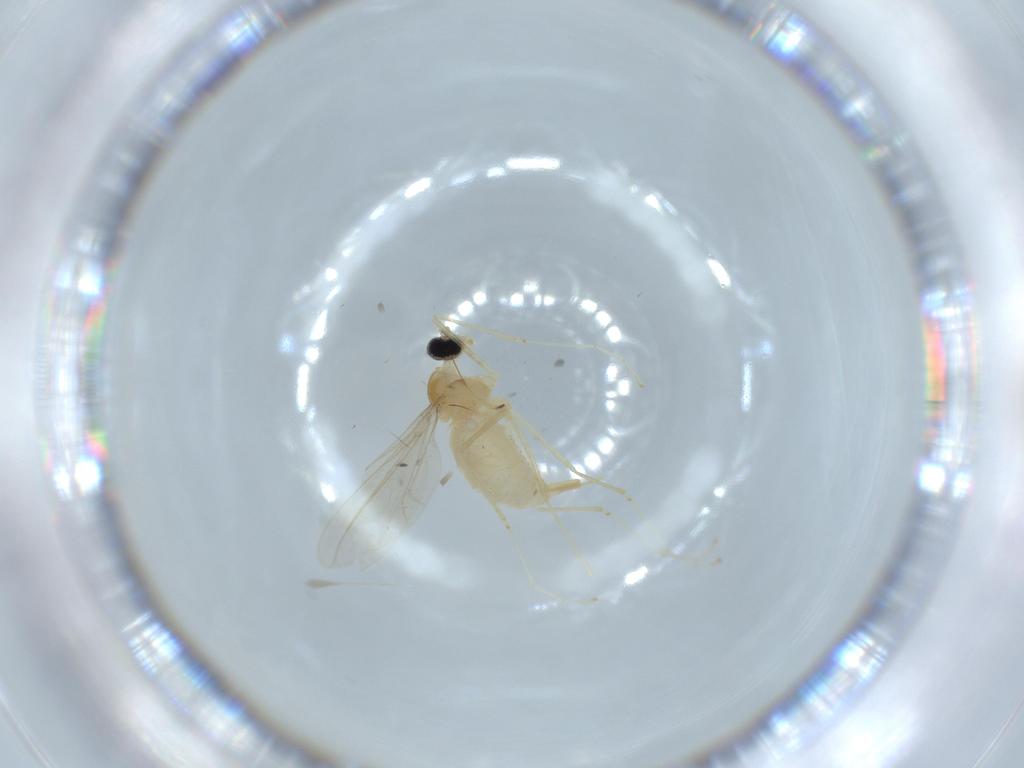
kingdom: Animalia
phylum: Arthropoda
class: Insecta
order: Diptera
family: Cecidomyiidae
